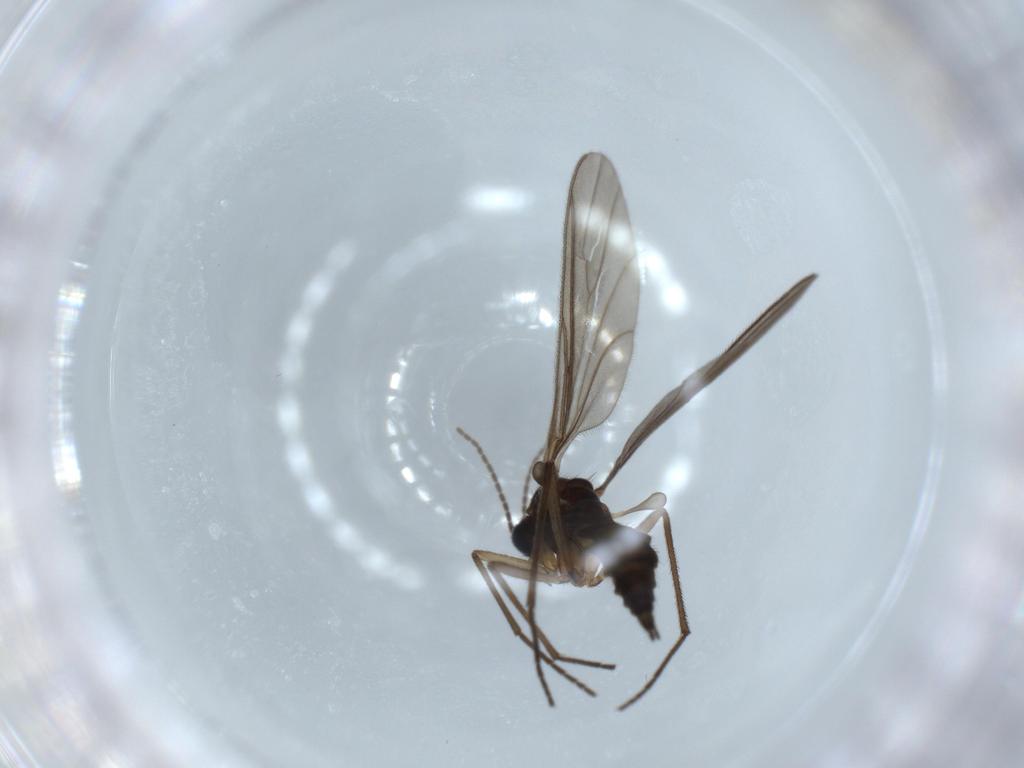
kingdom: Animalia
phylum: Arthropoda
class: Insecta
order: Diptera
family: Sciaridae
